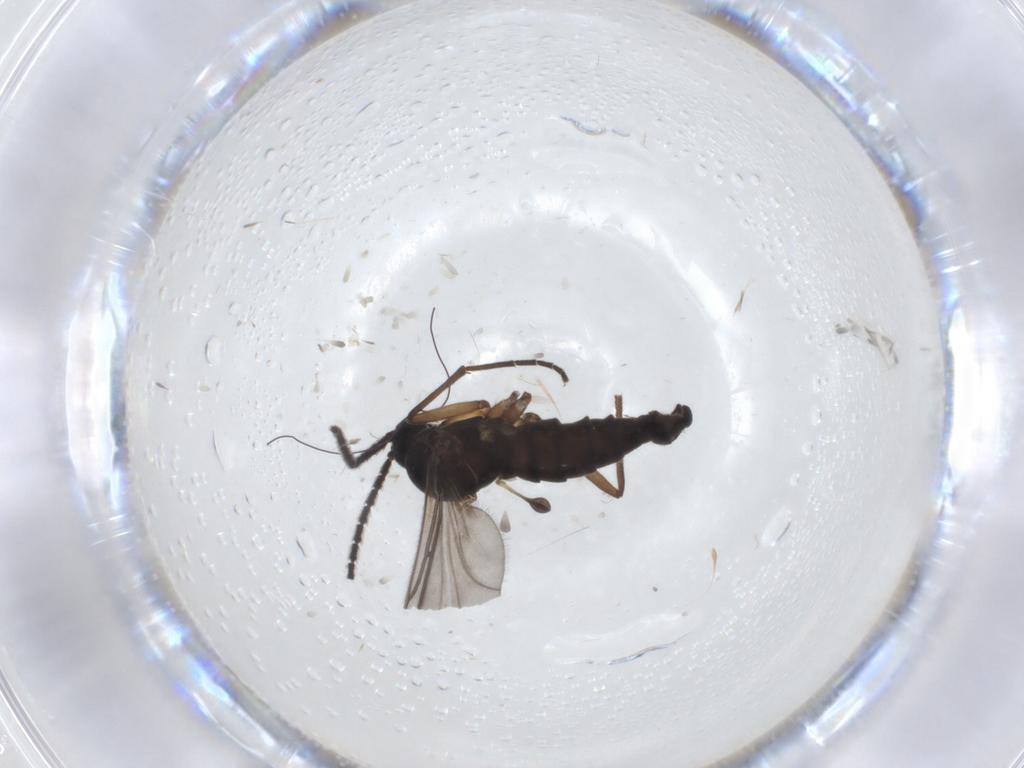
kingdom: Animalia
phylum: Arthropoda
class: Insecta
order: Diptera
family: Sciaridae
